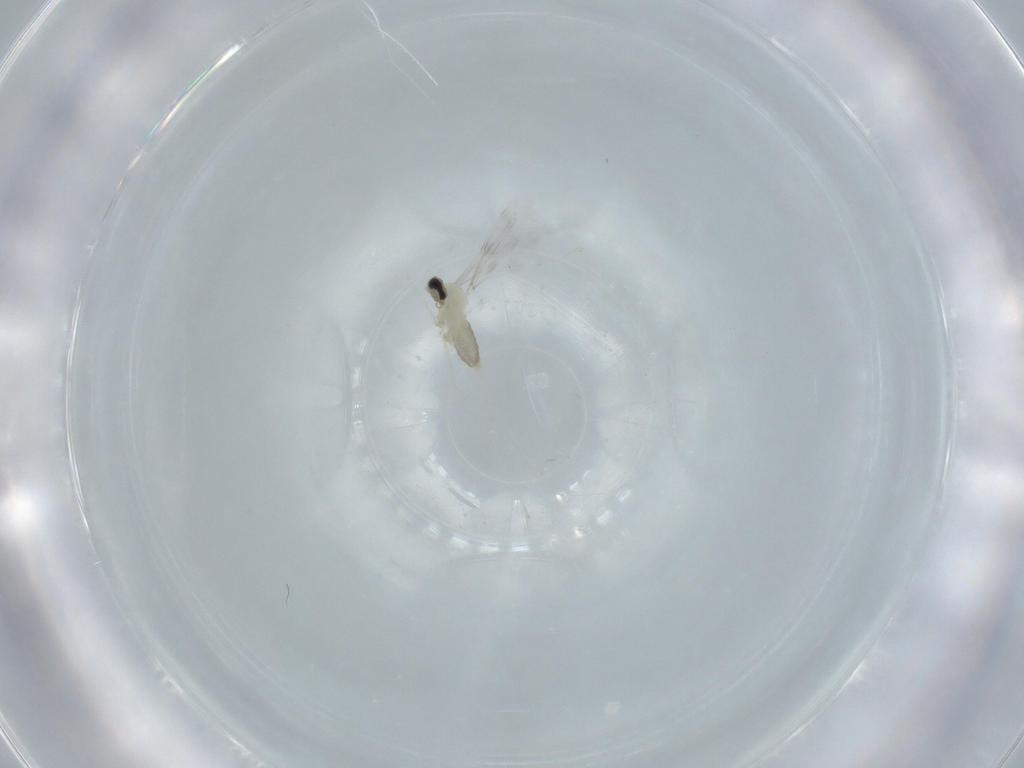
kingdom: Animalia
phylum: Arthropoda
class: Insecta
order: Diptera
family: Cecidomyiidae
